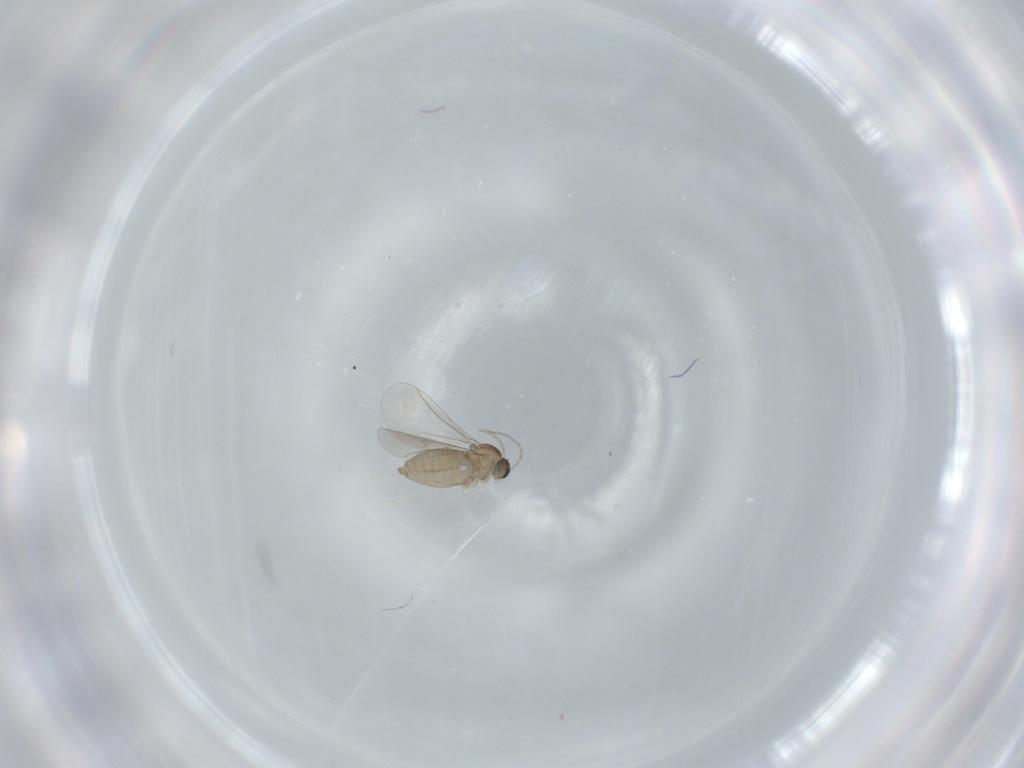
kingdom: Animalia
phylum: Arthropoda
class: Insecta
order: Diptera
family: Cecidomyiidae
